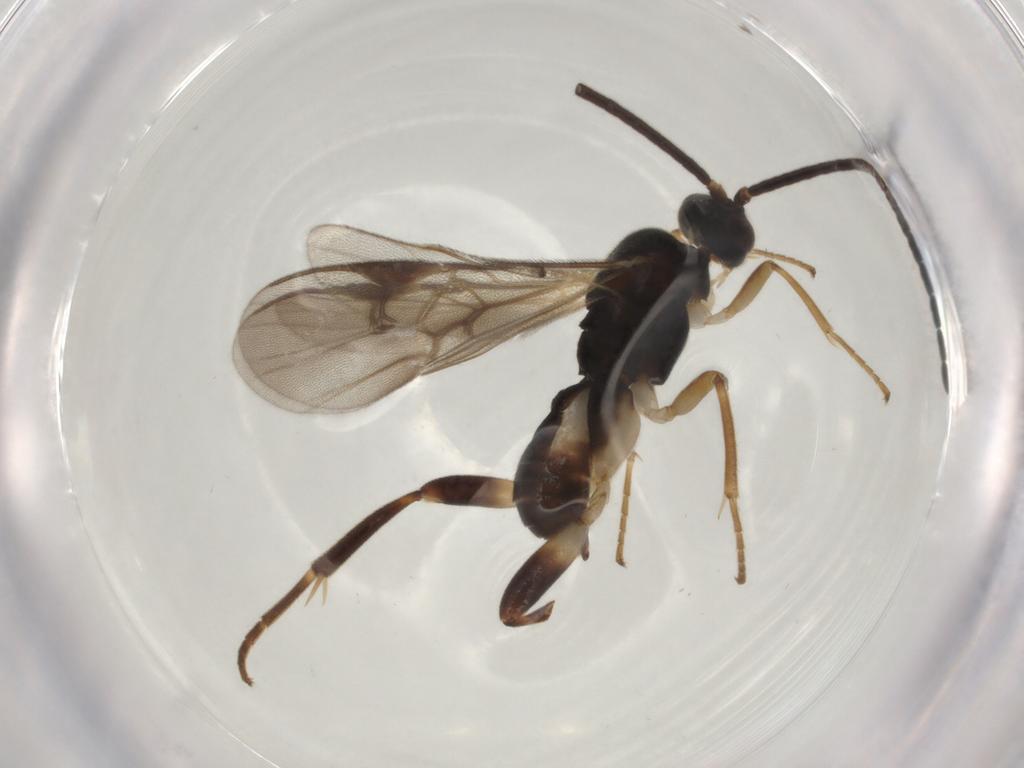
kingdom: Animalia
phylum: Arthropoda
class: Insecta
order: Hymenoptera
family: Braconidae
